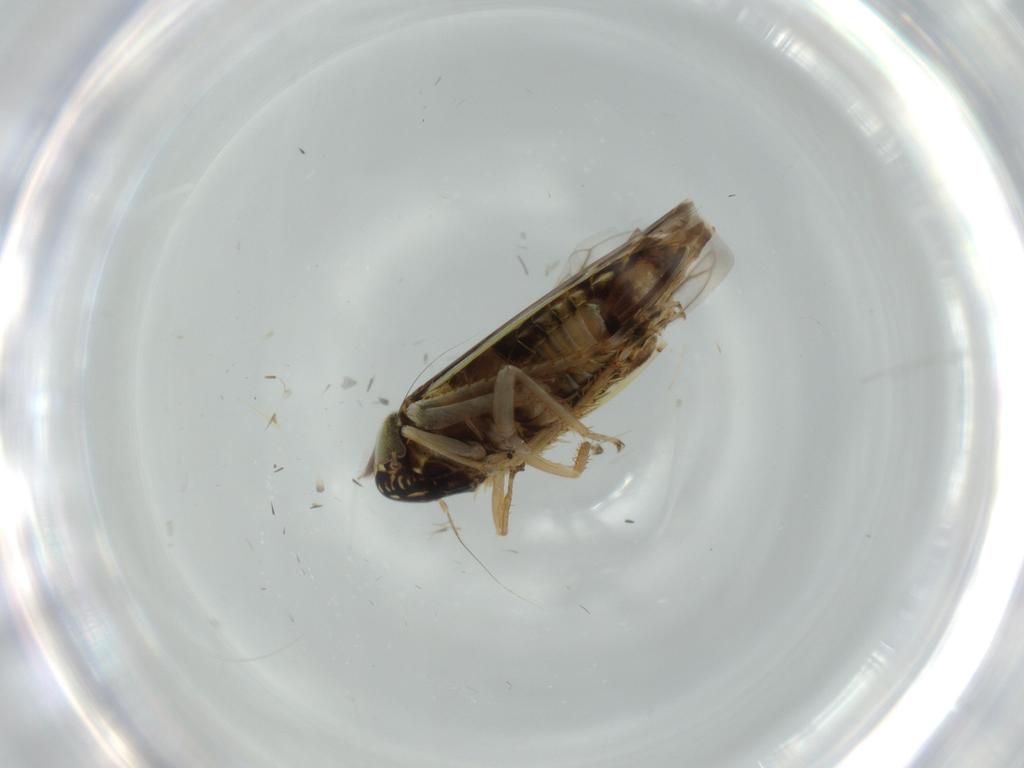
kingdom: Animalia
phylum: Arthropoda
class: Insecta
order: Hemiptera
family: Cicadellidae
